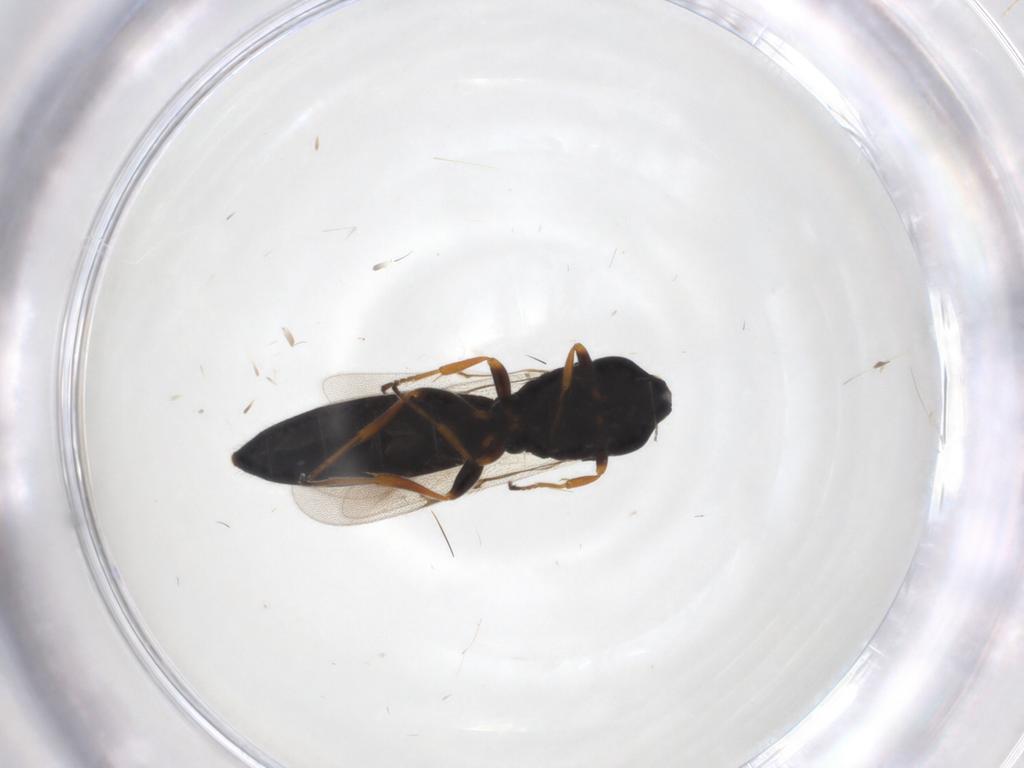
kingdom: Animalia
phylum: Arthropoda
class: Insecta
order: Hymenoptera
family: Scelionidae
